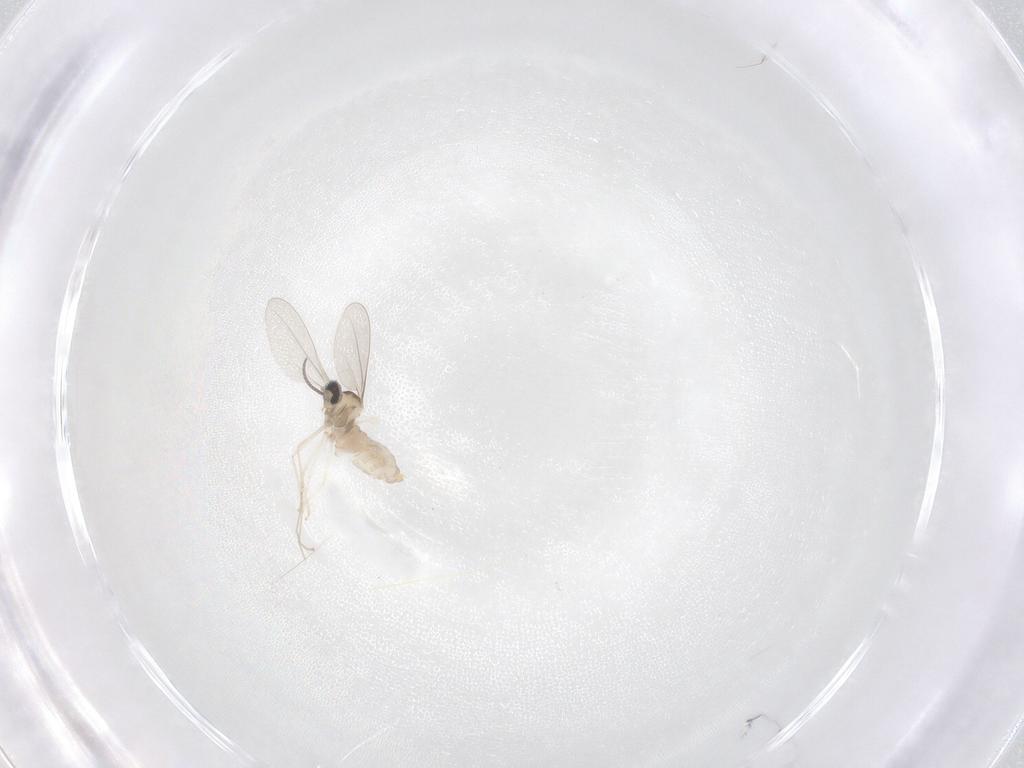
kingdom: Animalia
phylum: Arthropoda
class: Insecta
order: Diptera
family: Cecidomyiidae
